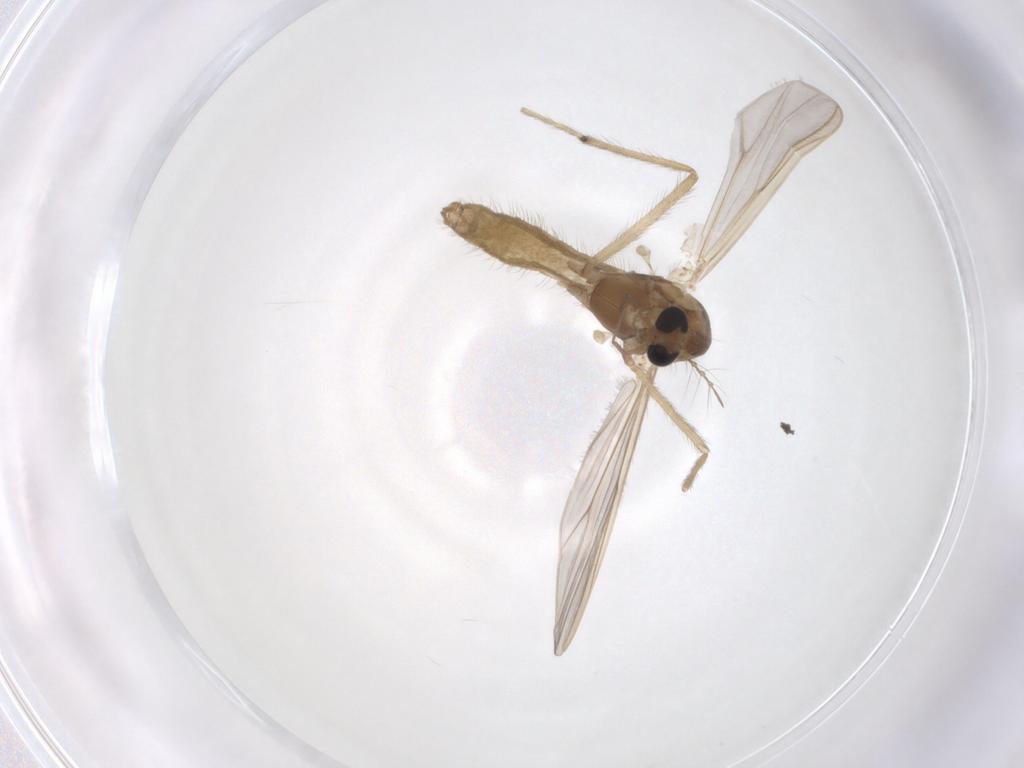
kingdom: Animalia
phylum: Arthropoda
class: Insecta
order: Diptera
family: Chironomidae
